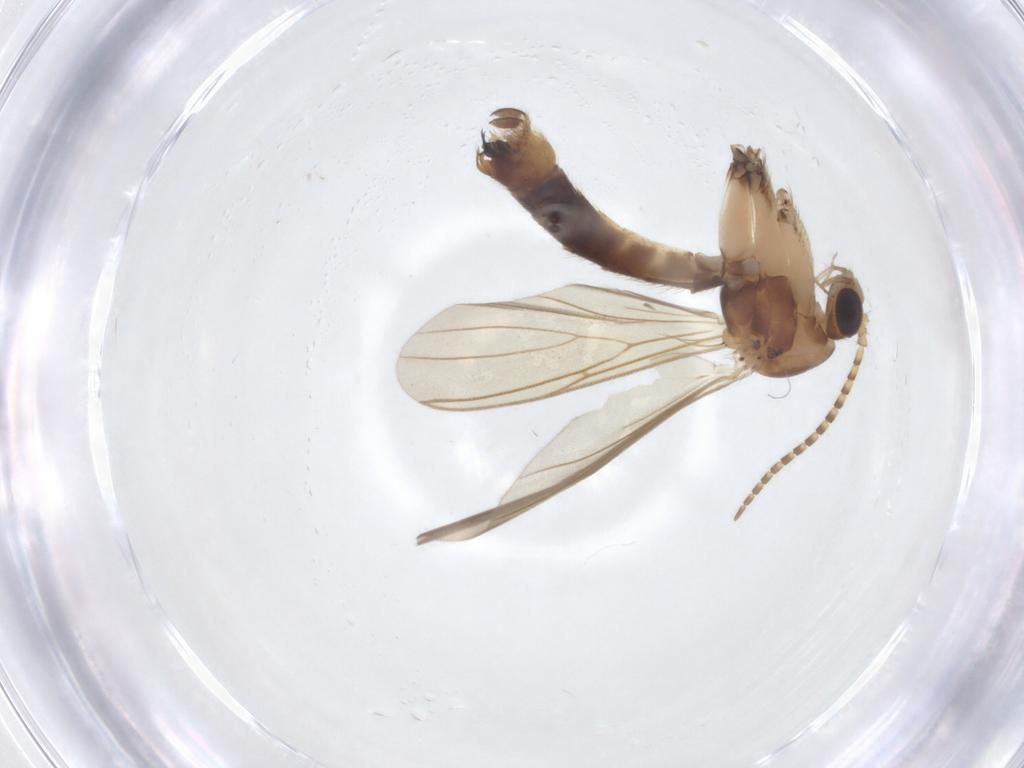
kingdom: Animalia
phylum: Arthropoda
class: Insecta
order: Diptera
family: Mycetophilidae
